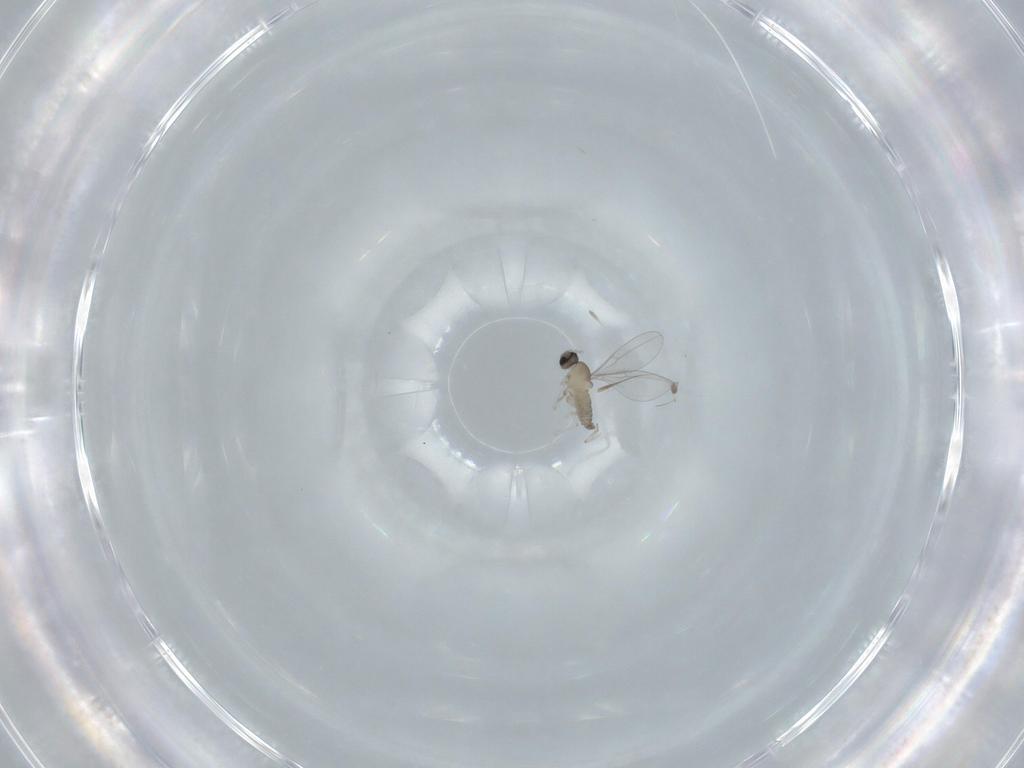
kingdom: Animalia
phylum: Arthropoda
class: Insecta
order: Diptera
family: Cecidomyiidae
